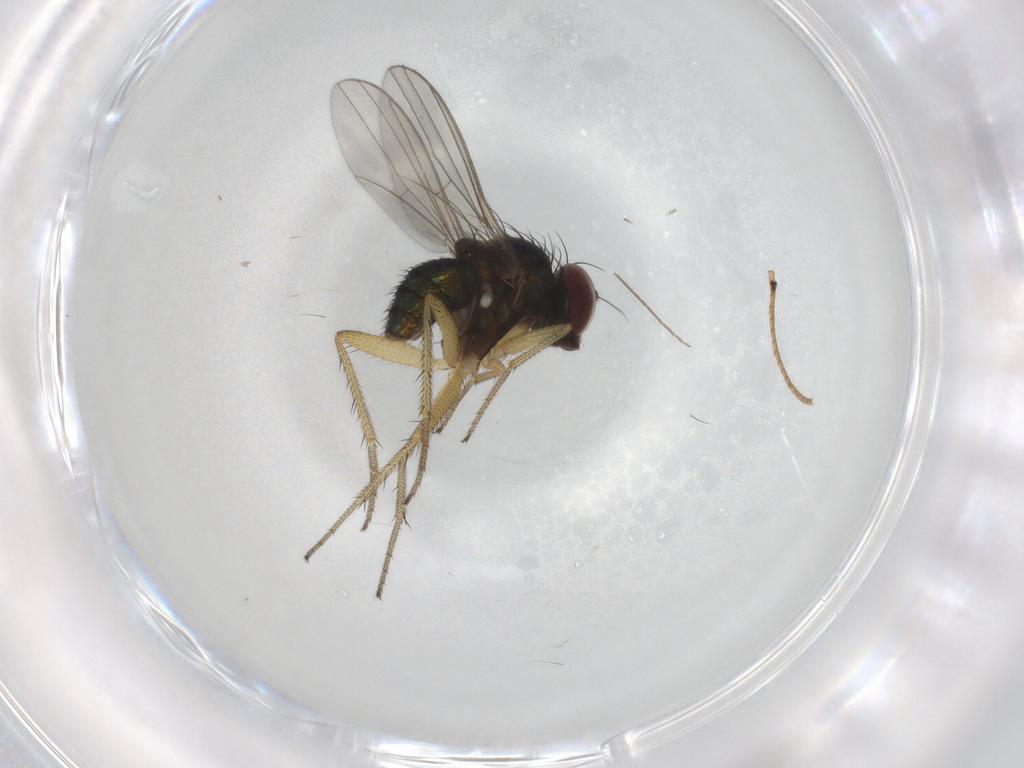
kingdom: Animalia
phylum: Arthropoda
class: Insecta
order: Diptera
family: Dolichopodidae
